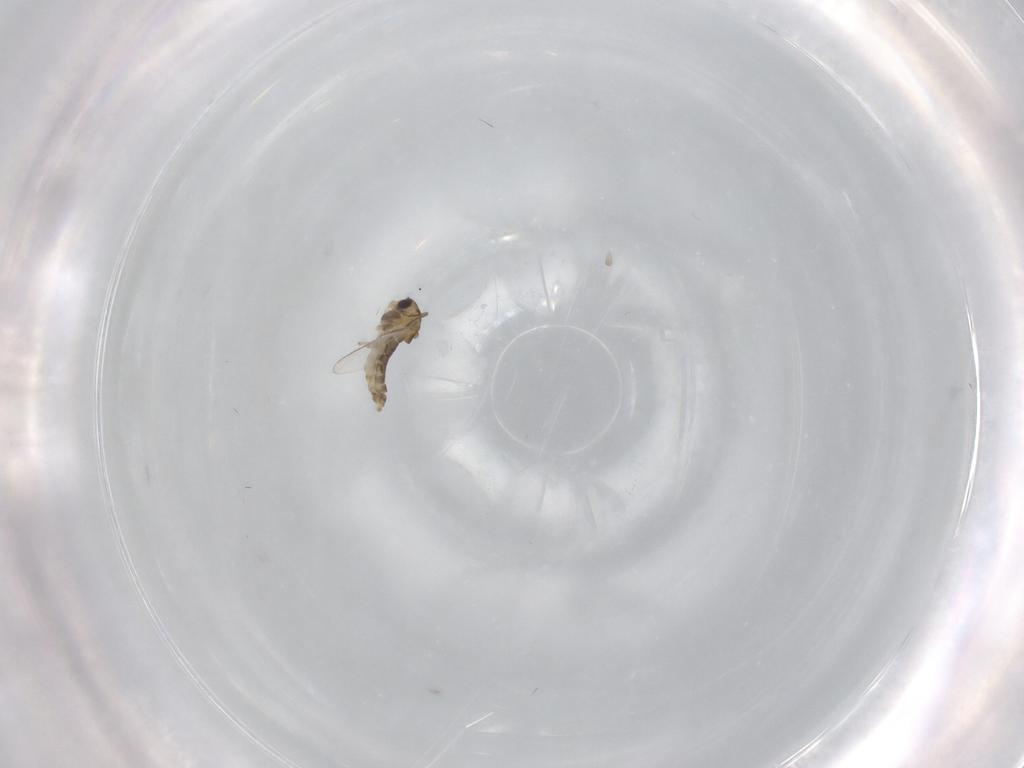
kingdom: Animalia
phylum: Arthropoda
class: Insecta
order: Diptera
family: Chironomidae
